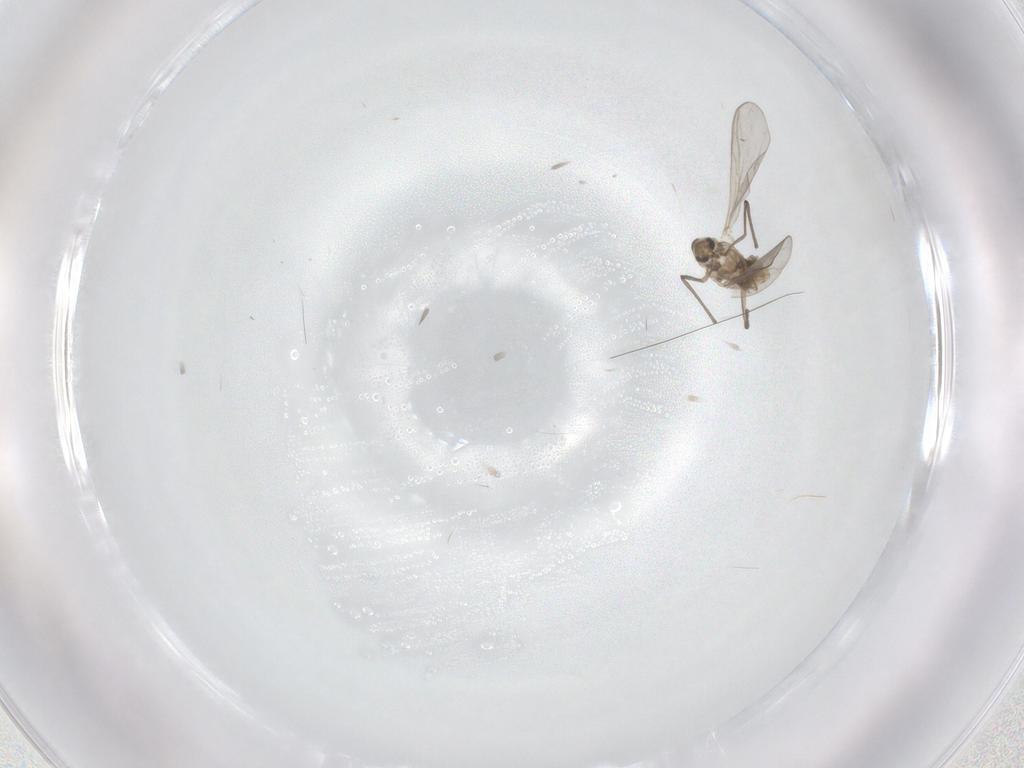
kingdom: Animalia
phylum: Arthropoda
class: Insecta
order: Diptera
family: Chironomidae
